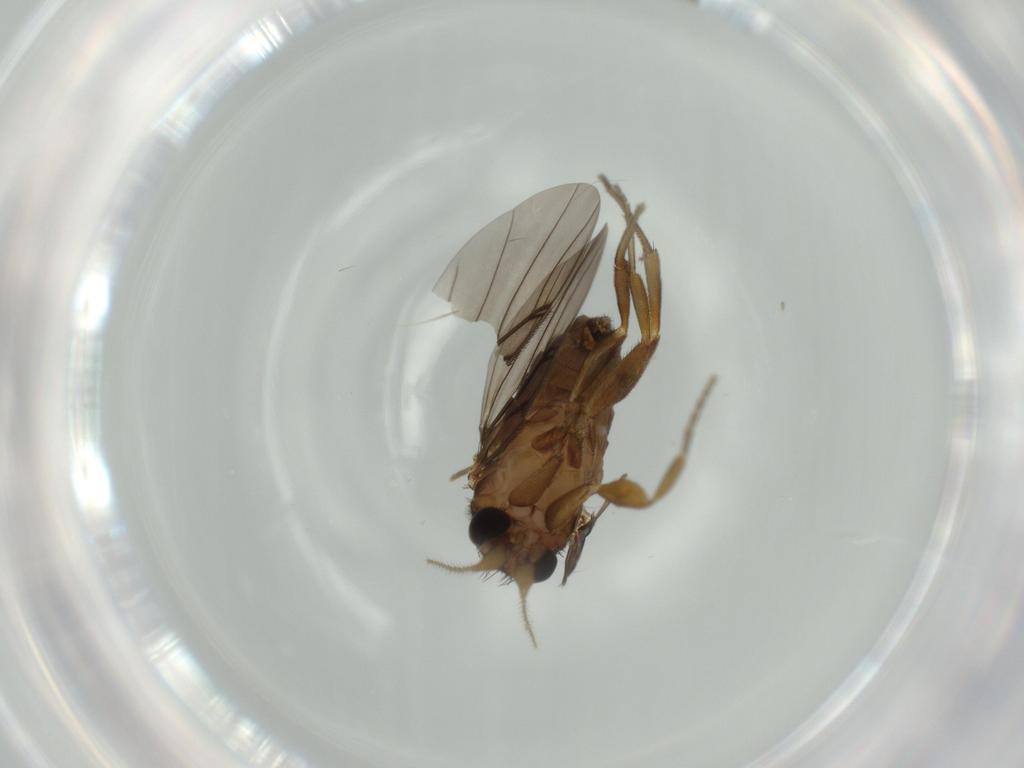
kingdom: Animalia
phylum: Arthropoda
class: Insecta
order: Diptera
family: Phoridae
